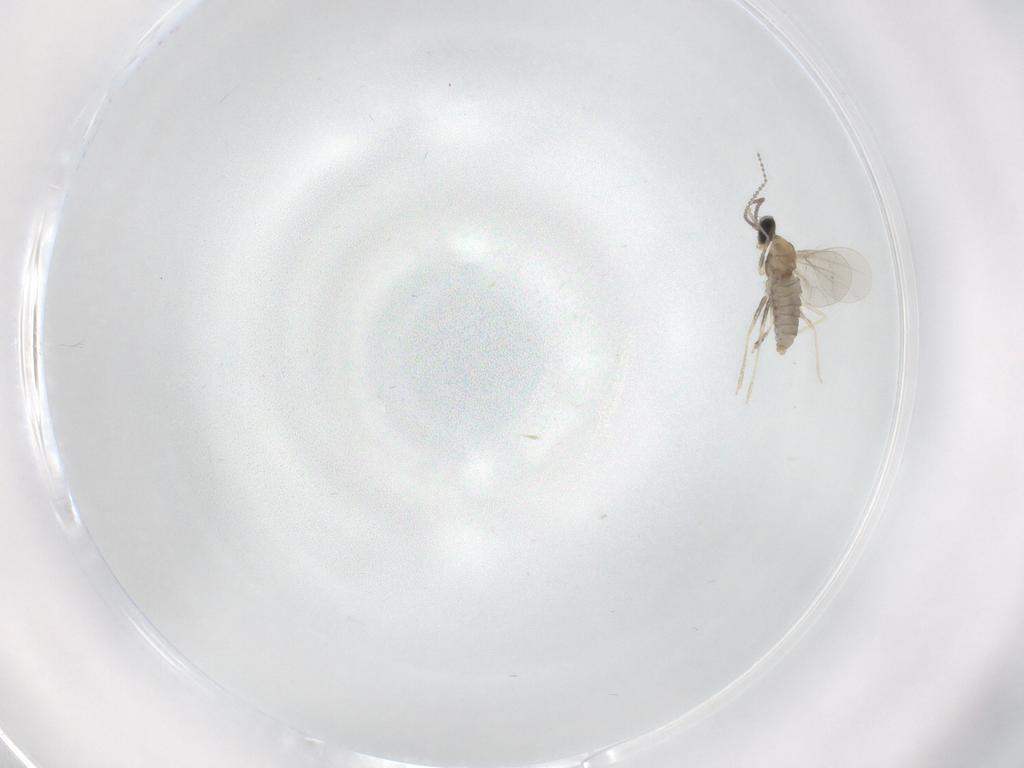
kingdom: Animalia
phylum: Arthropoda
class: Insecta
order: Diptera
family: Cecidomyiidae
